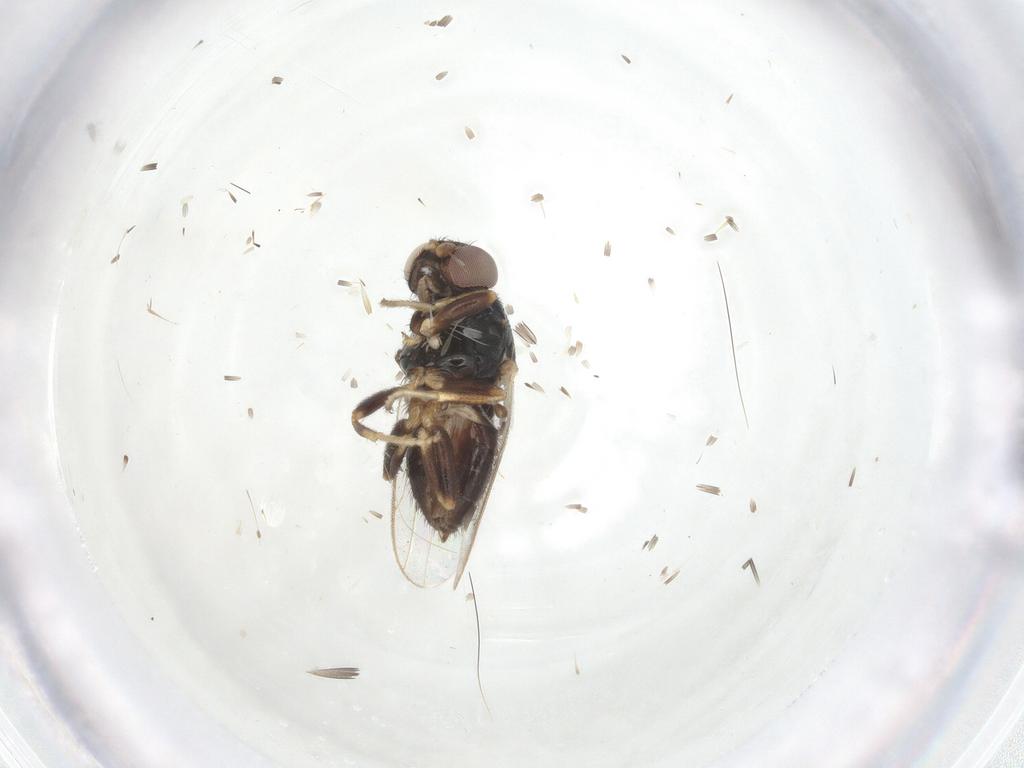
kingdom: Animalia
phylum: Arthropoda
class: Insecta
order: Diptera
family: Chloropidae
